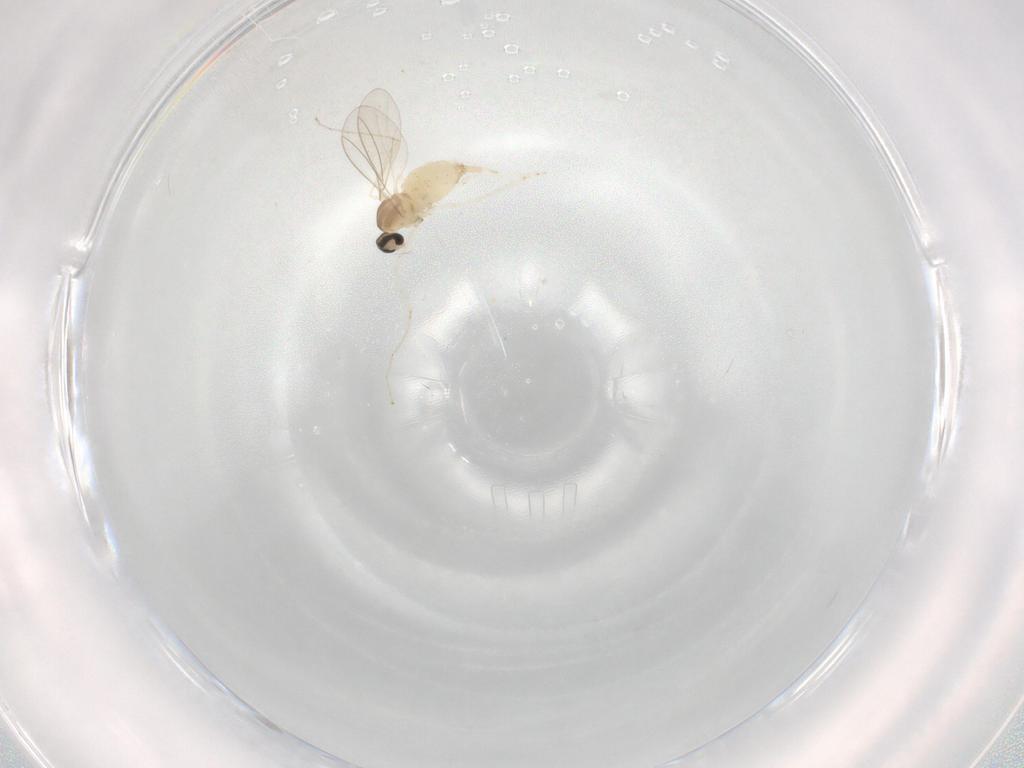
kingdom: Animalia
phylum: Arthropoda
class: Insecta
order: Diptera
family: Cecidomyiidae
